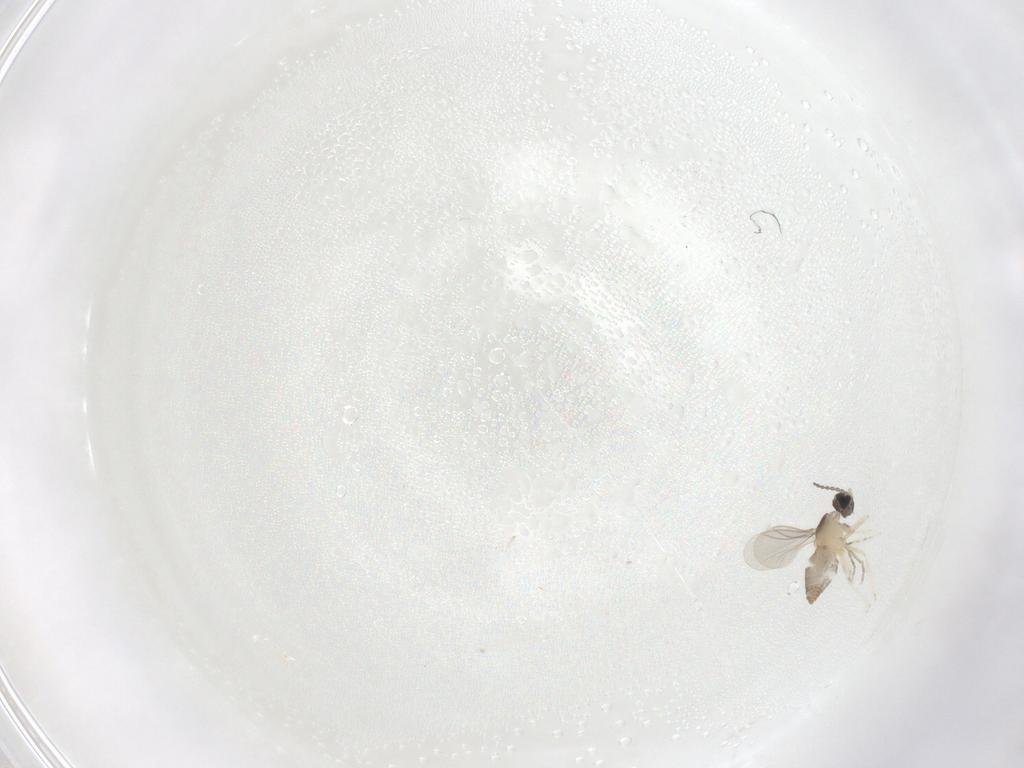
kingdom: Animalia
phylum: Arthropoda
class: Insecta
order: Diptera
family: Cecidomyiidae
